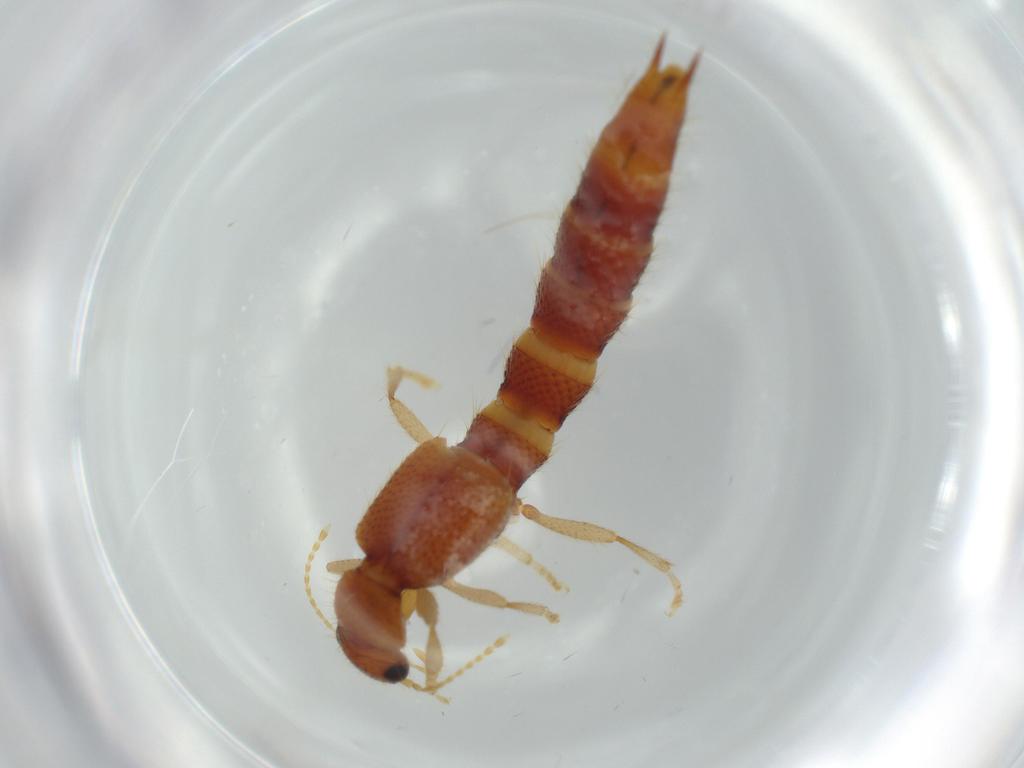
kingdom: Animalia
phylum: Arthropoda
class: Insecta
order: Coleoptera
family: Staphylinidae
